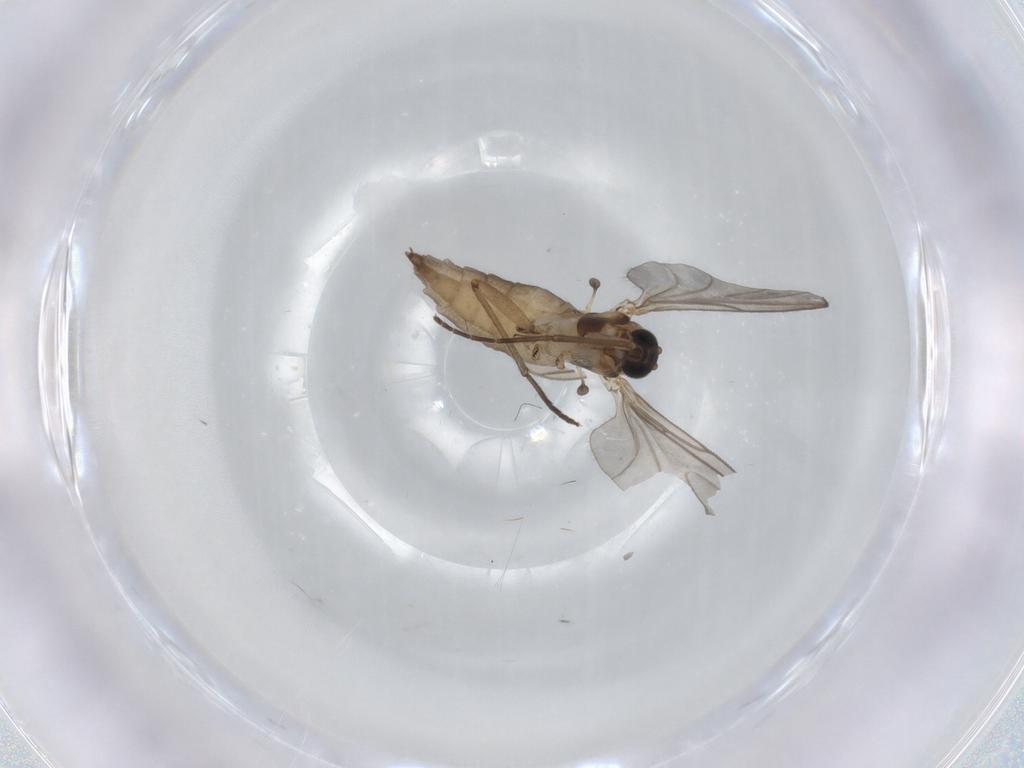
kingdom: Animalia
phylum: Arthropoda
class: Insecta
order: Diptera
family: Sciaridae
